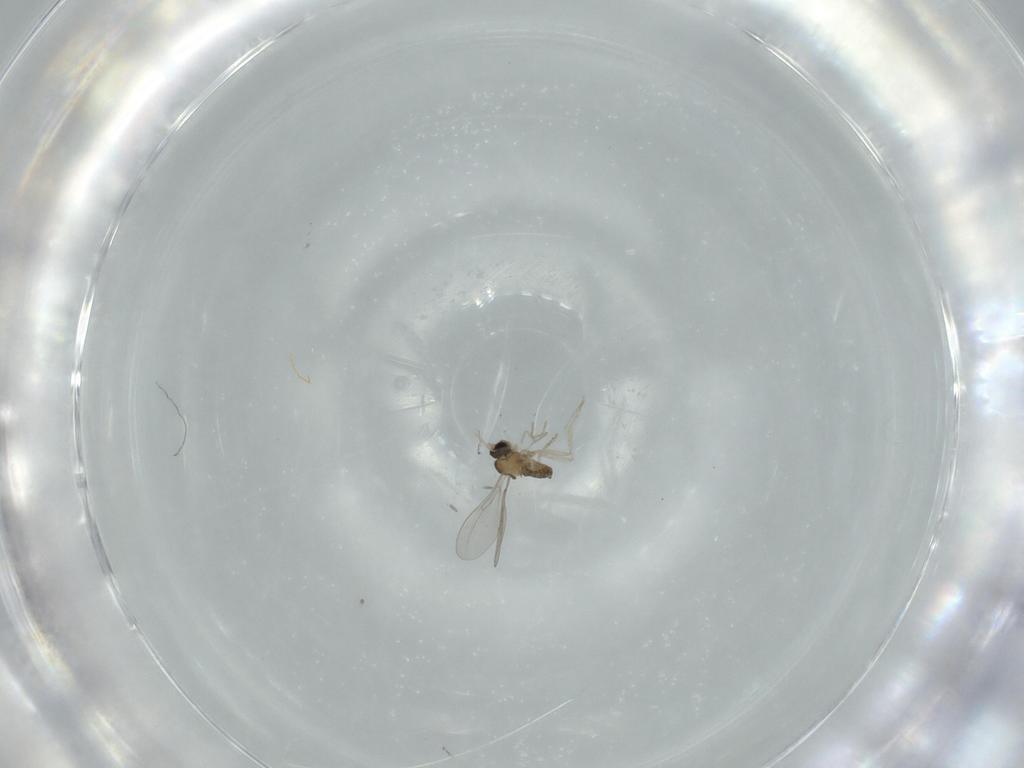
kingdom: Animalia
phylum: Arthropoda
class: Insecta
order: Diptera
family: Cecidomyiidae
